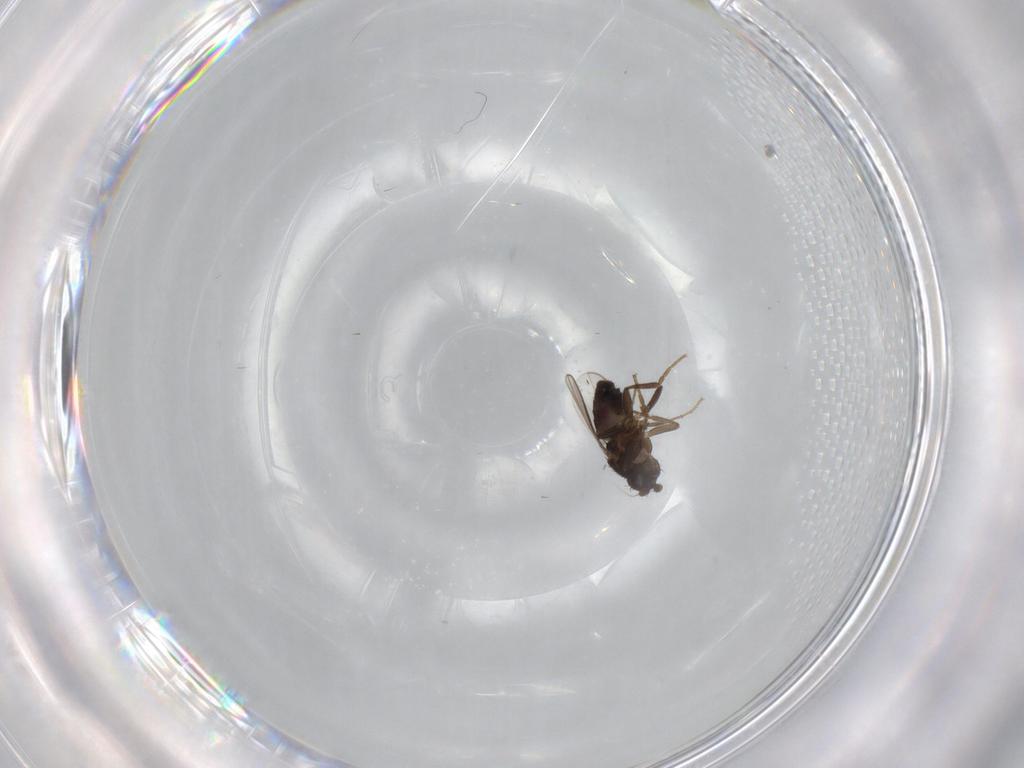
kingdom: Animalia
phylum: Arthropoda
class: Insecta
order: Diptera
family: Sphaeroceridae
